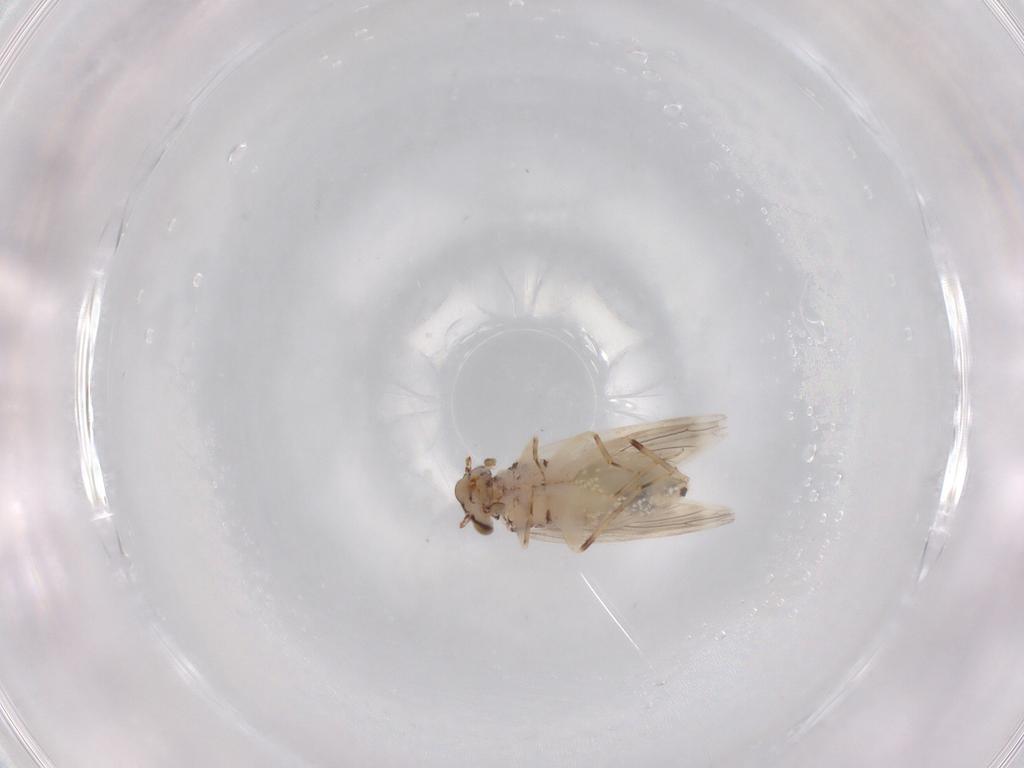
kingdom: Animalia
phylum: Arthropoda
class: Insecta
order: Psocodea
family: Lepidopsocidae
